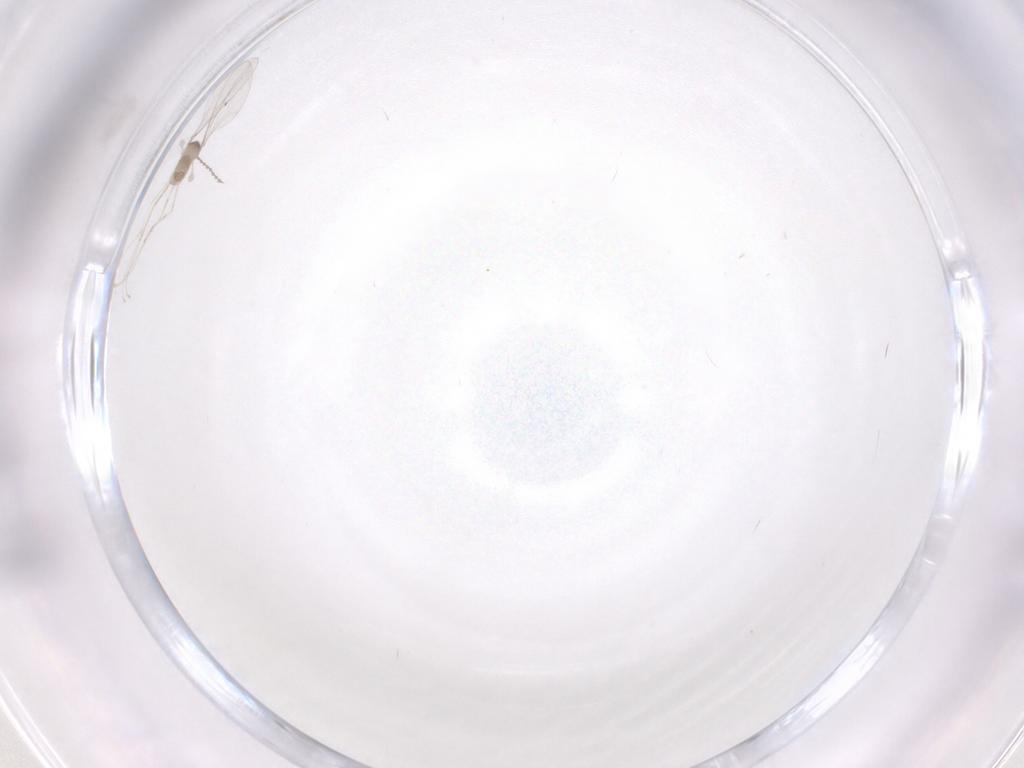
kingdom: Animalia
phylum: Arthropoda
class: Insecta
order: Diptera
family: Cecidomyiidae
